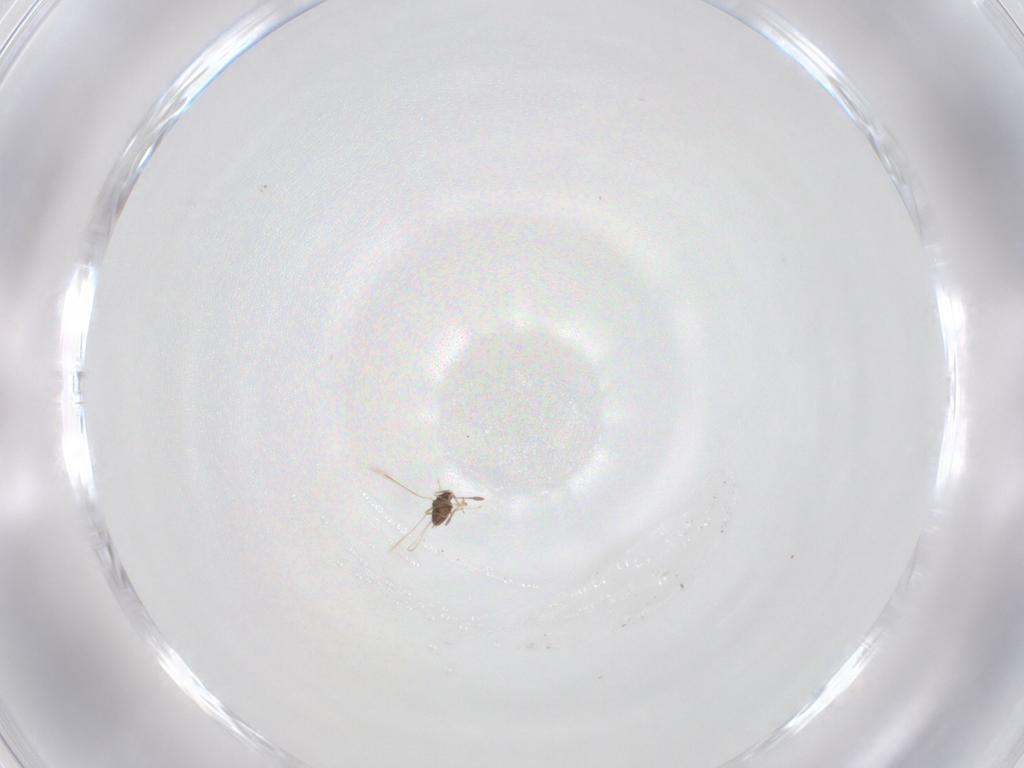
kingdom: Animalia
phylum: Arthropoda
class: Insecta
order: Hymenoptera
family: Mymaridae
